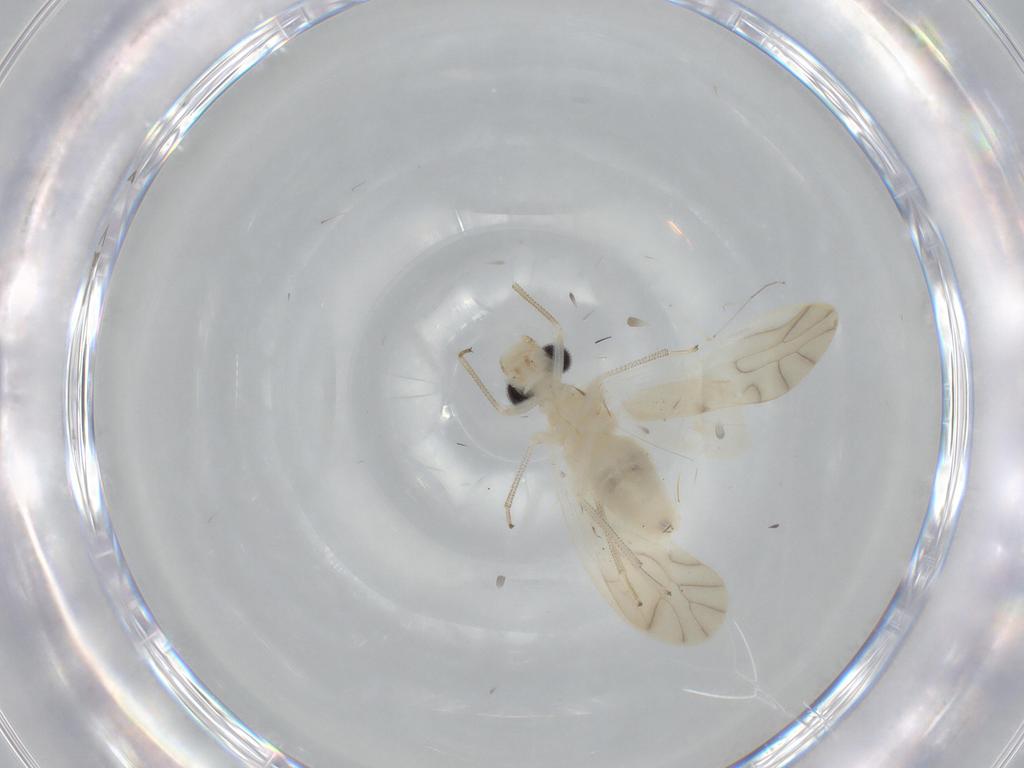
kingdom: Animalia
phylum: Arthropoda
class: Insecta
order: Psocodea
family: Caeciliusidae
